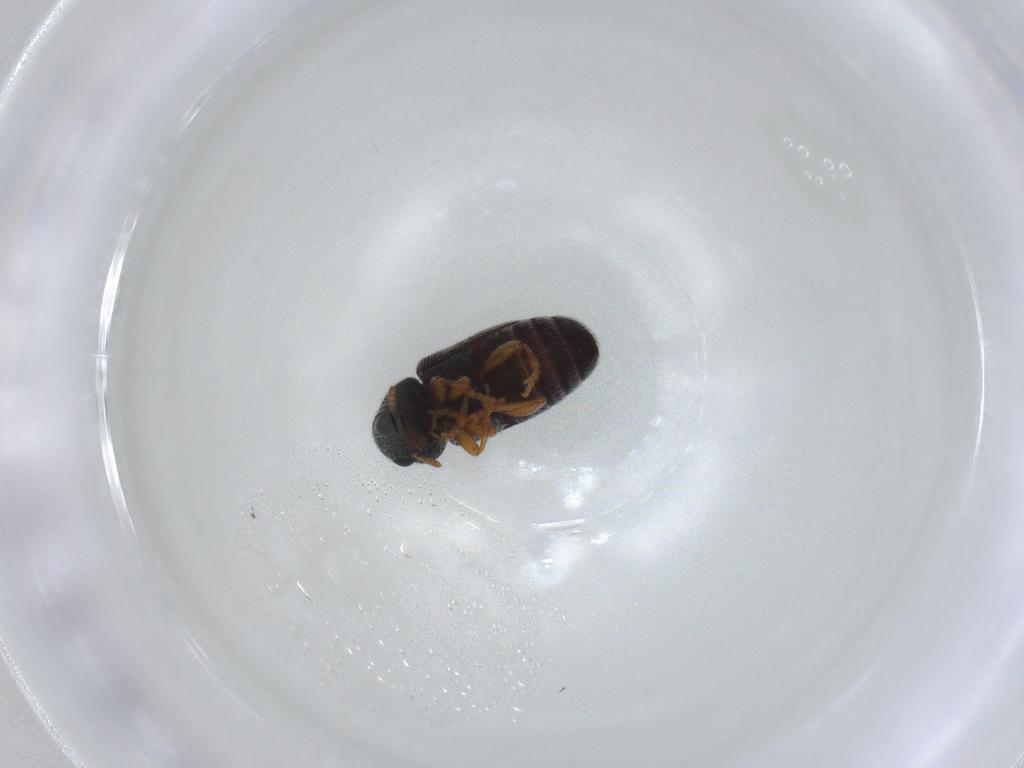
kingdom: Animalia
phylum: Arthropoda
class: Insecta
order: Coleoptera
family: Anthribidae
